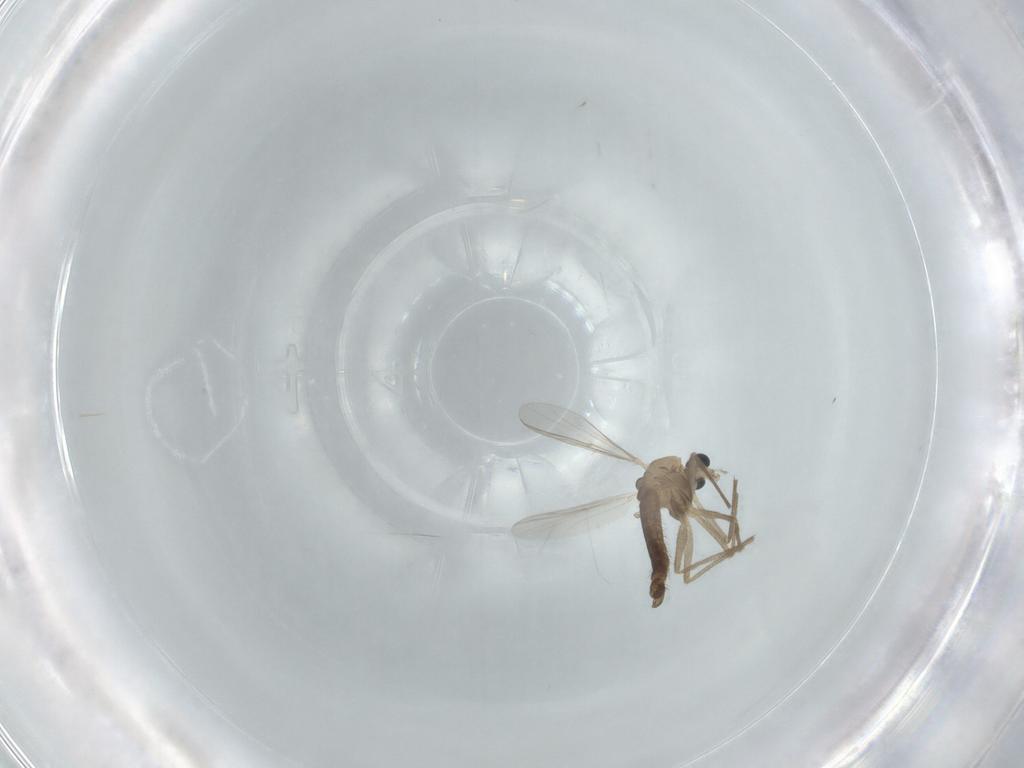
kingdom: Animalia
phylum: Arthropoda
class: Insecta
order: Diptera
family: Chironomidae
